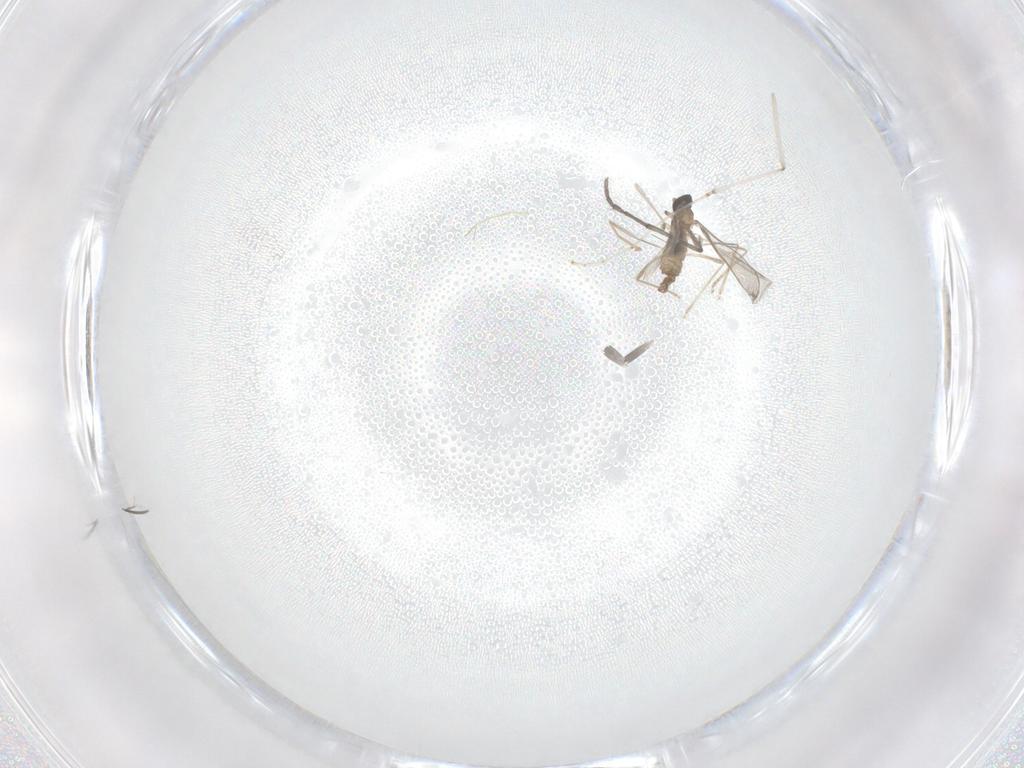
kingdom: Animalia
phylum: Arthropoda
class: Insecta
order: Diptera
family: Cecidomyiidae
